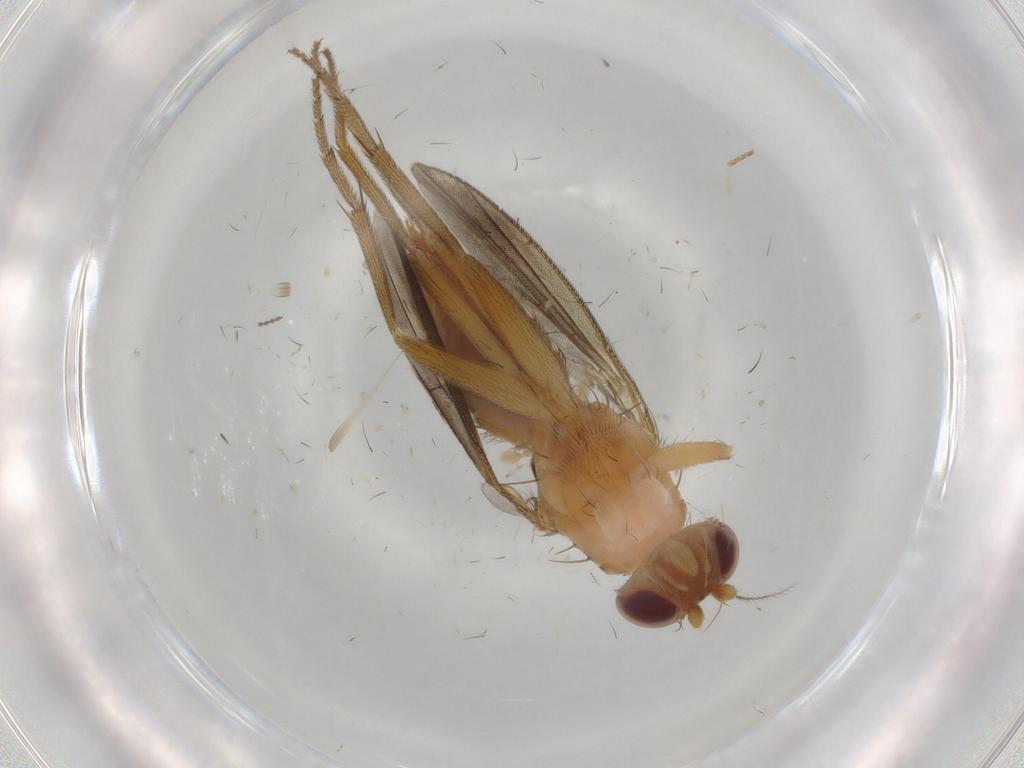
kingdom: Animalia
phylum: Arthropoda
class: Insecta
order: Diptera
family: Clusiidae
